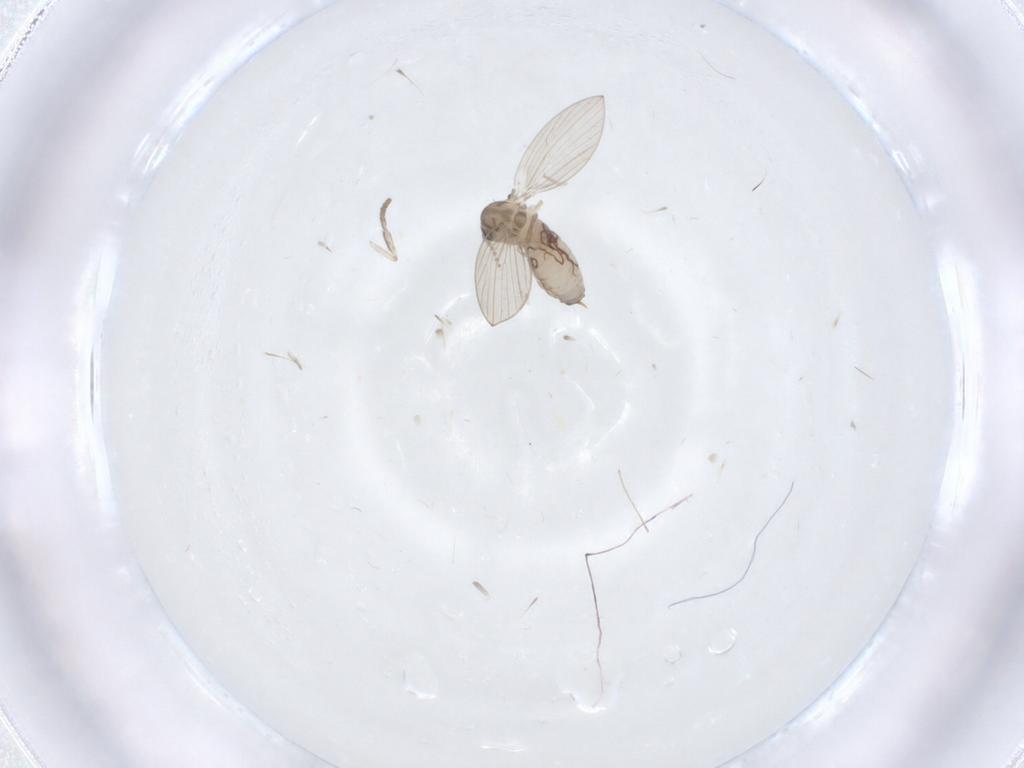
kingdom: Animalia
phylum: Arthropoda
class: Insecta
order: Diptera
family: Psychodidae
